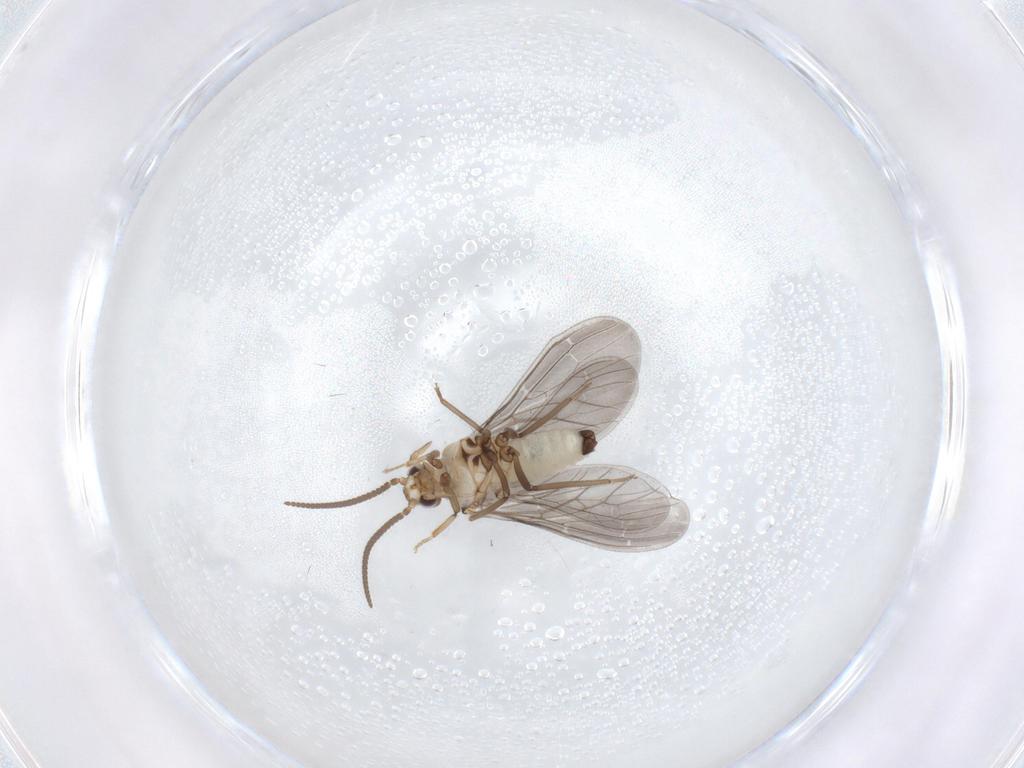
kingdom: Animalia
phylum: Arthropoda
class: Insecta
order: Neuroptera
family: Coniopterygidae
